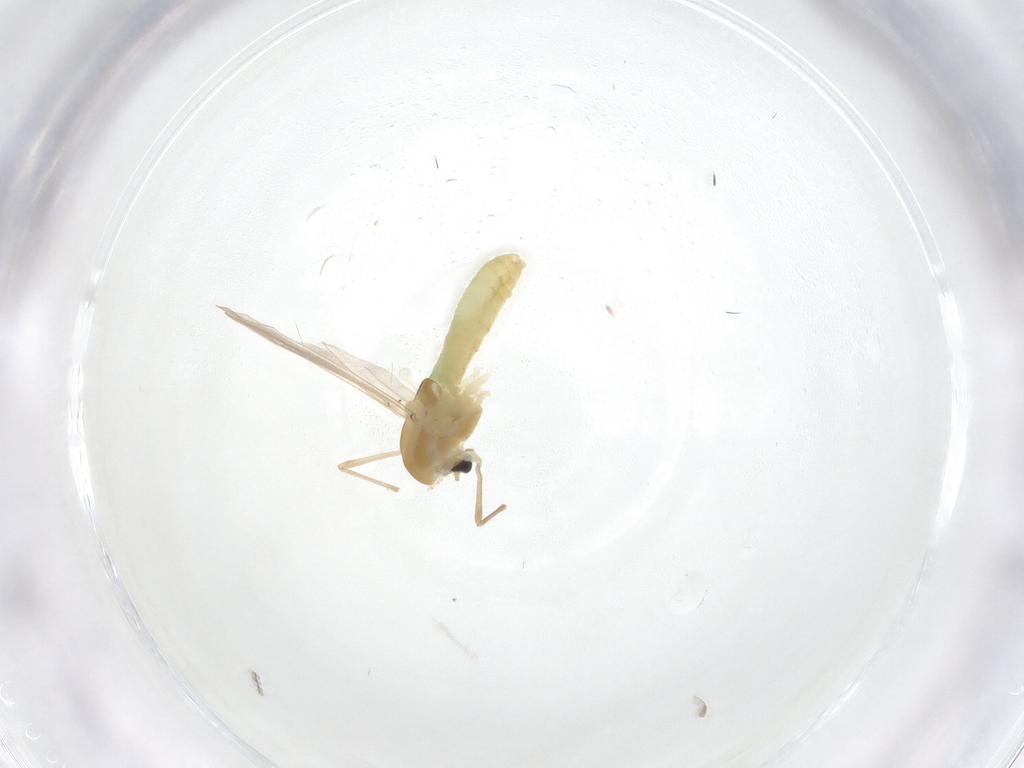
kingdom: Animalia
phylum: Arthropoda
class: Insecta
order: Diptera
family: Chironomidae
